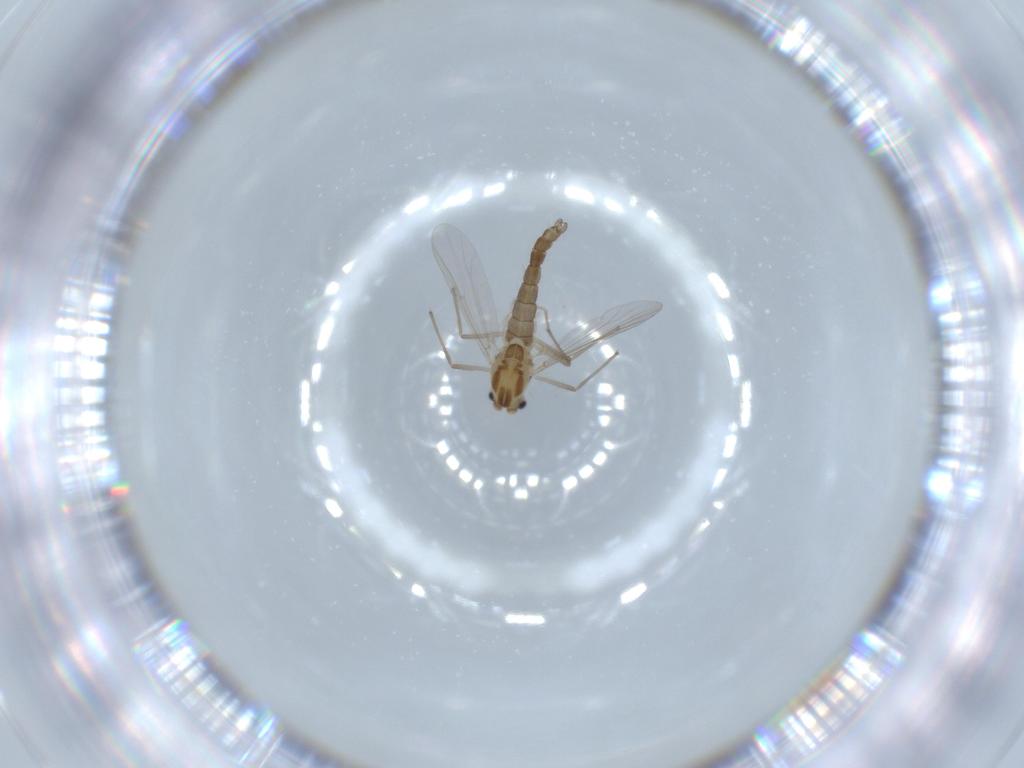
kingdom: Animalia
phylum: Arthropoda
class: Insecta
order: Diptera
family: Chironomidae
